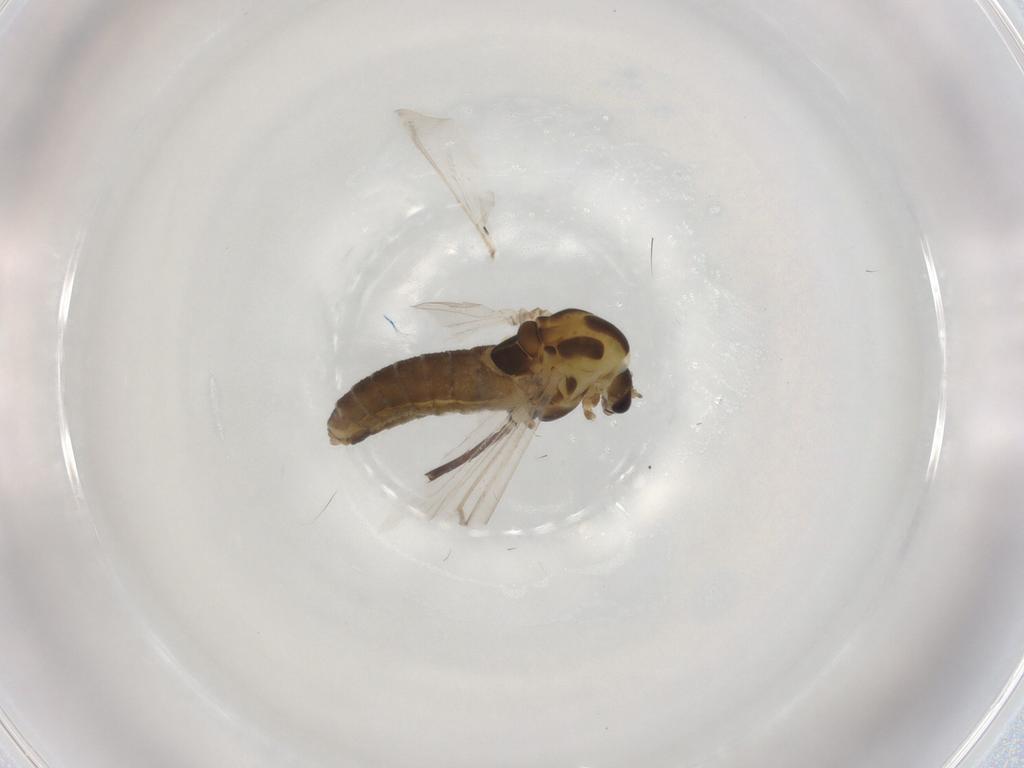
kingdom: Animalia
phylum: Arthropoda
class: Insecta
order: Diptera
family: Chironomidae
